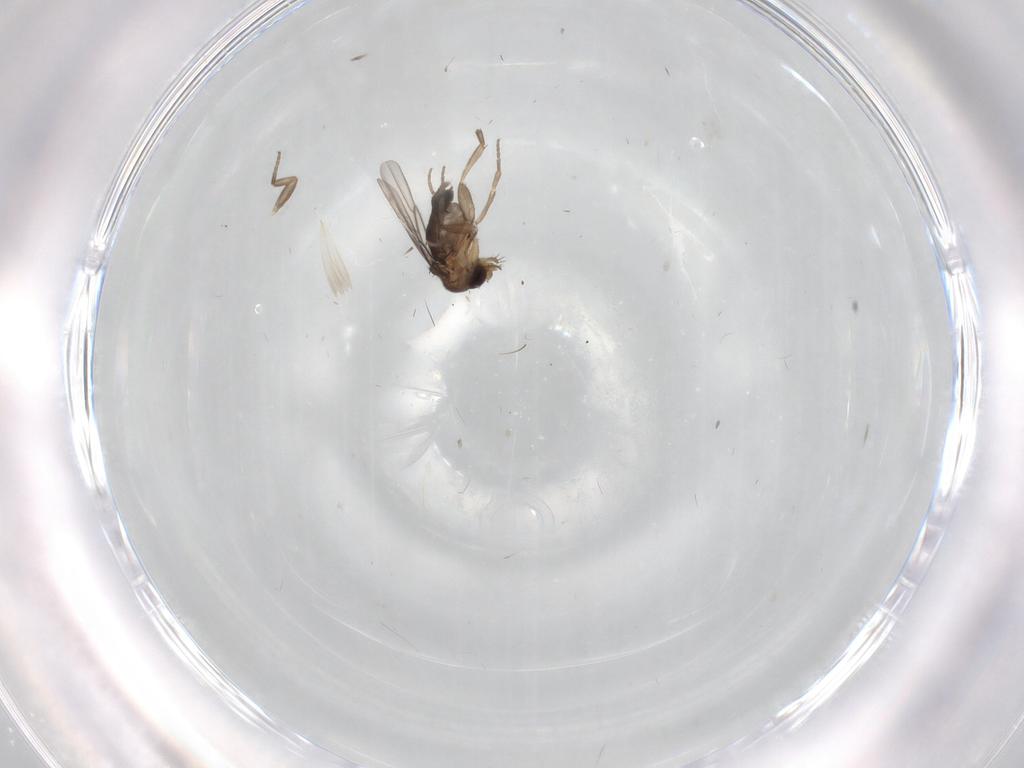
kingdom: Animalia
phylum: Arthropoda
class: Insecta
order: Diptera
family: Phoridae
